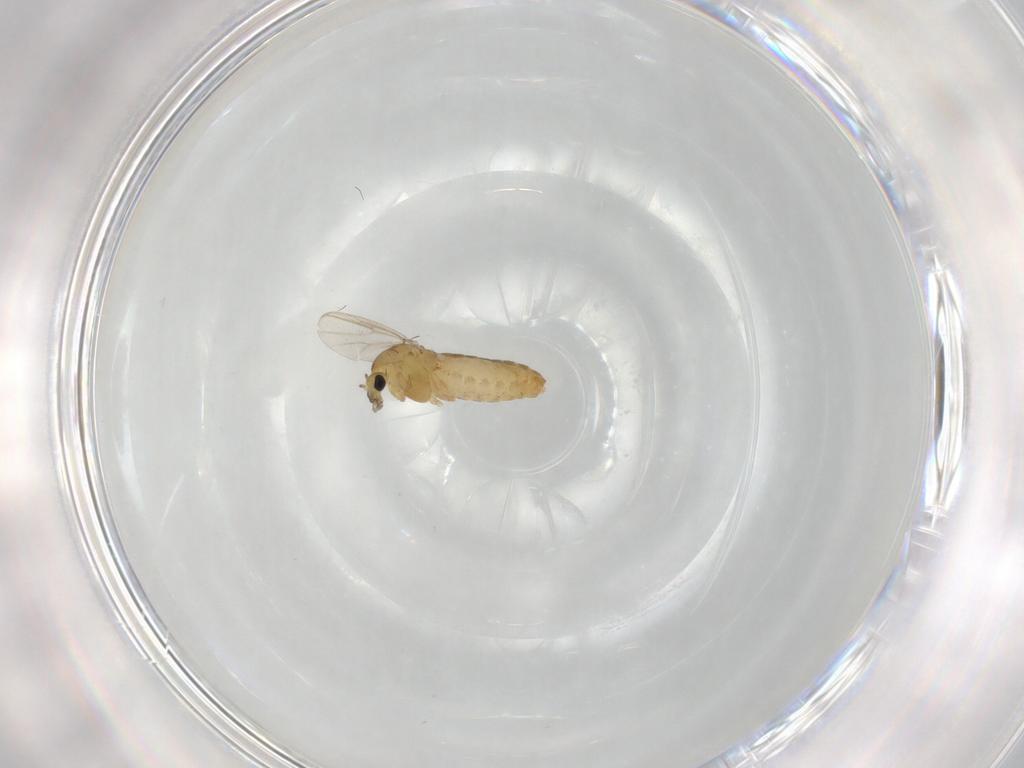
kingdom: Animalia
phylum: Arthropoda
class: Insecta
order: Diptera
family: Chironomidae
